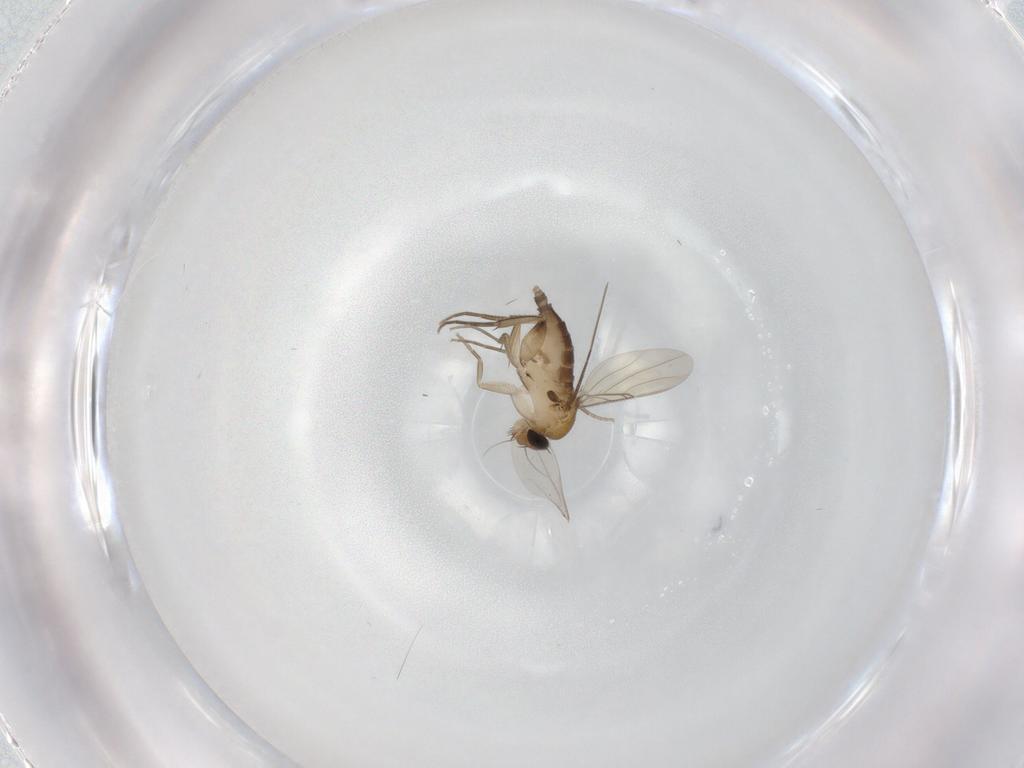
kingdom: Animalia
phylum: Arthropoda
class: Insecta
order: Diptera
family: Phoridae
